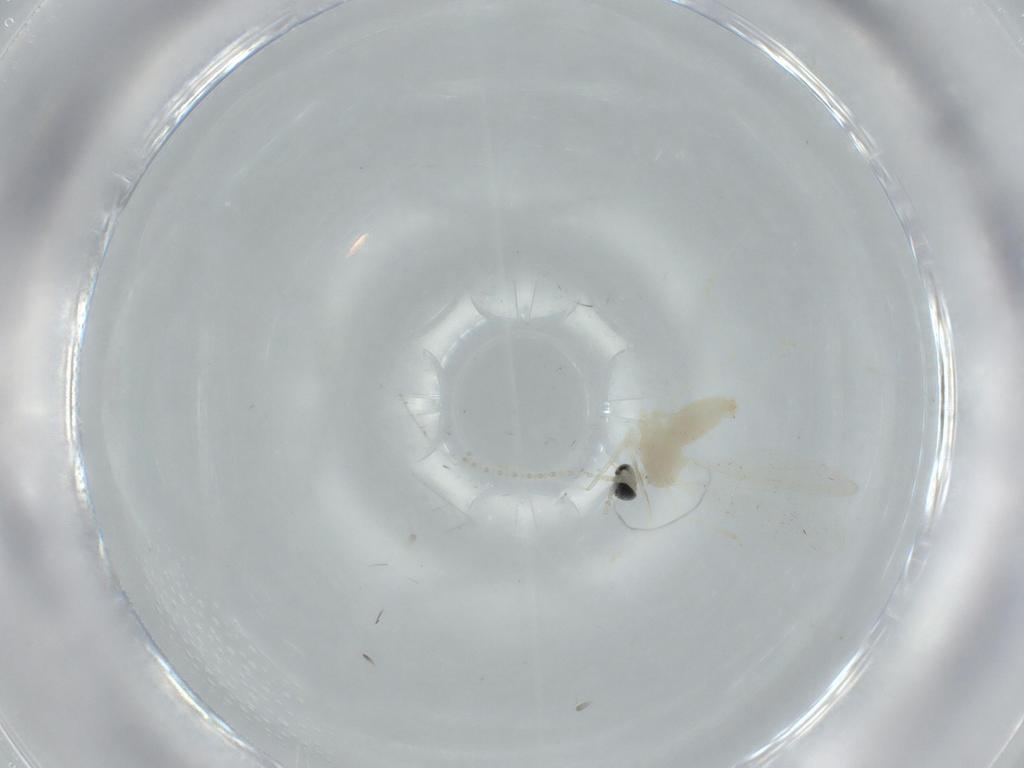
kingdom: Animalia
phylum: Arthropoda
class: Insecta
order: Diptera
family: Cecidomyiidae
